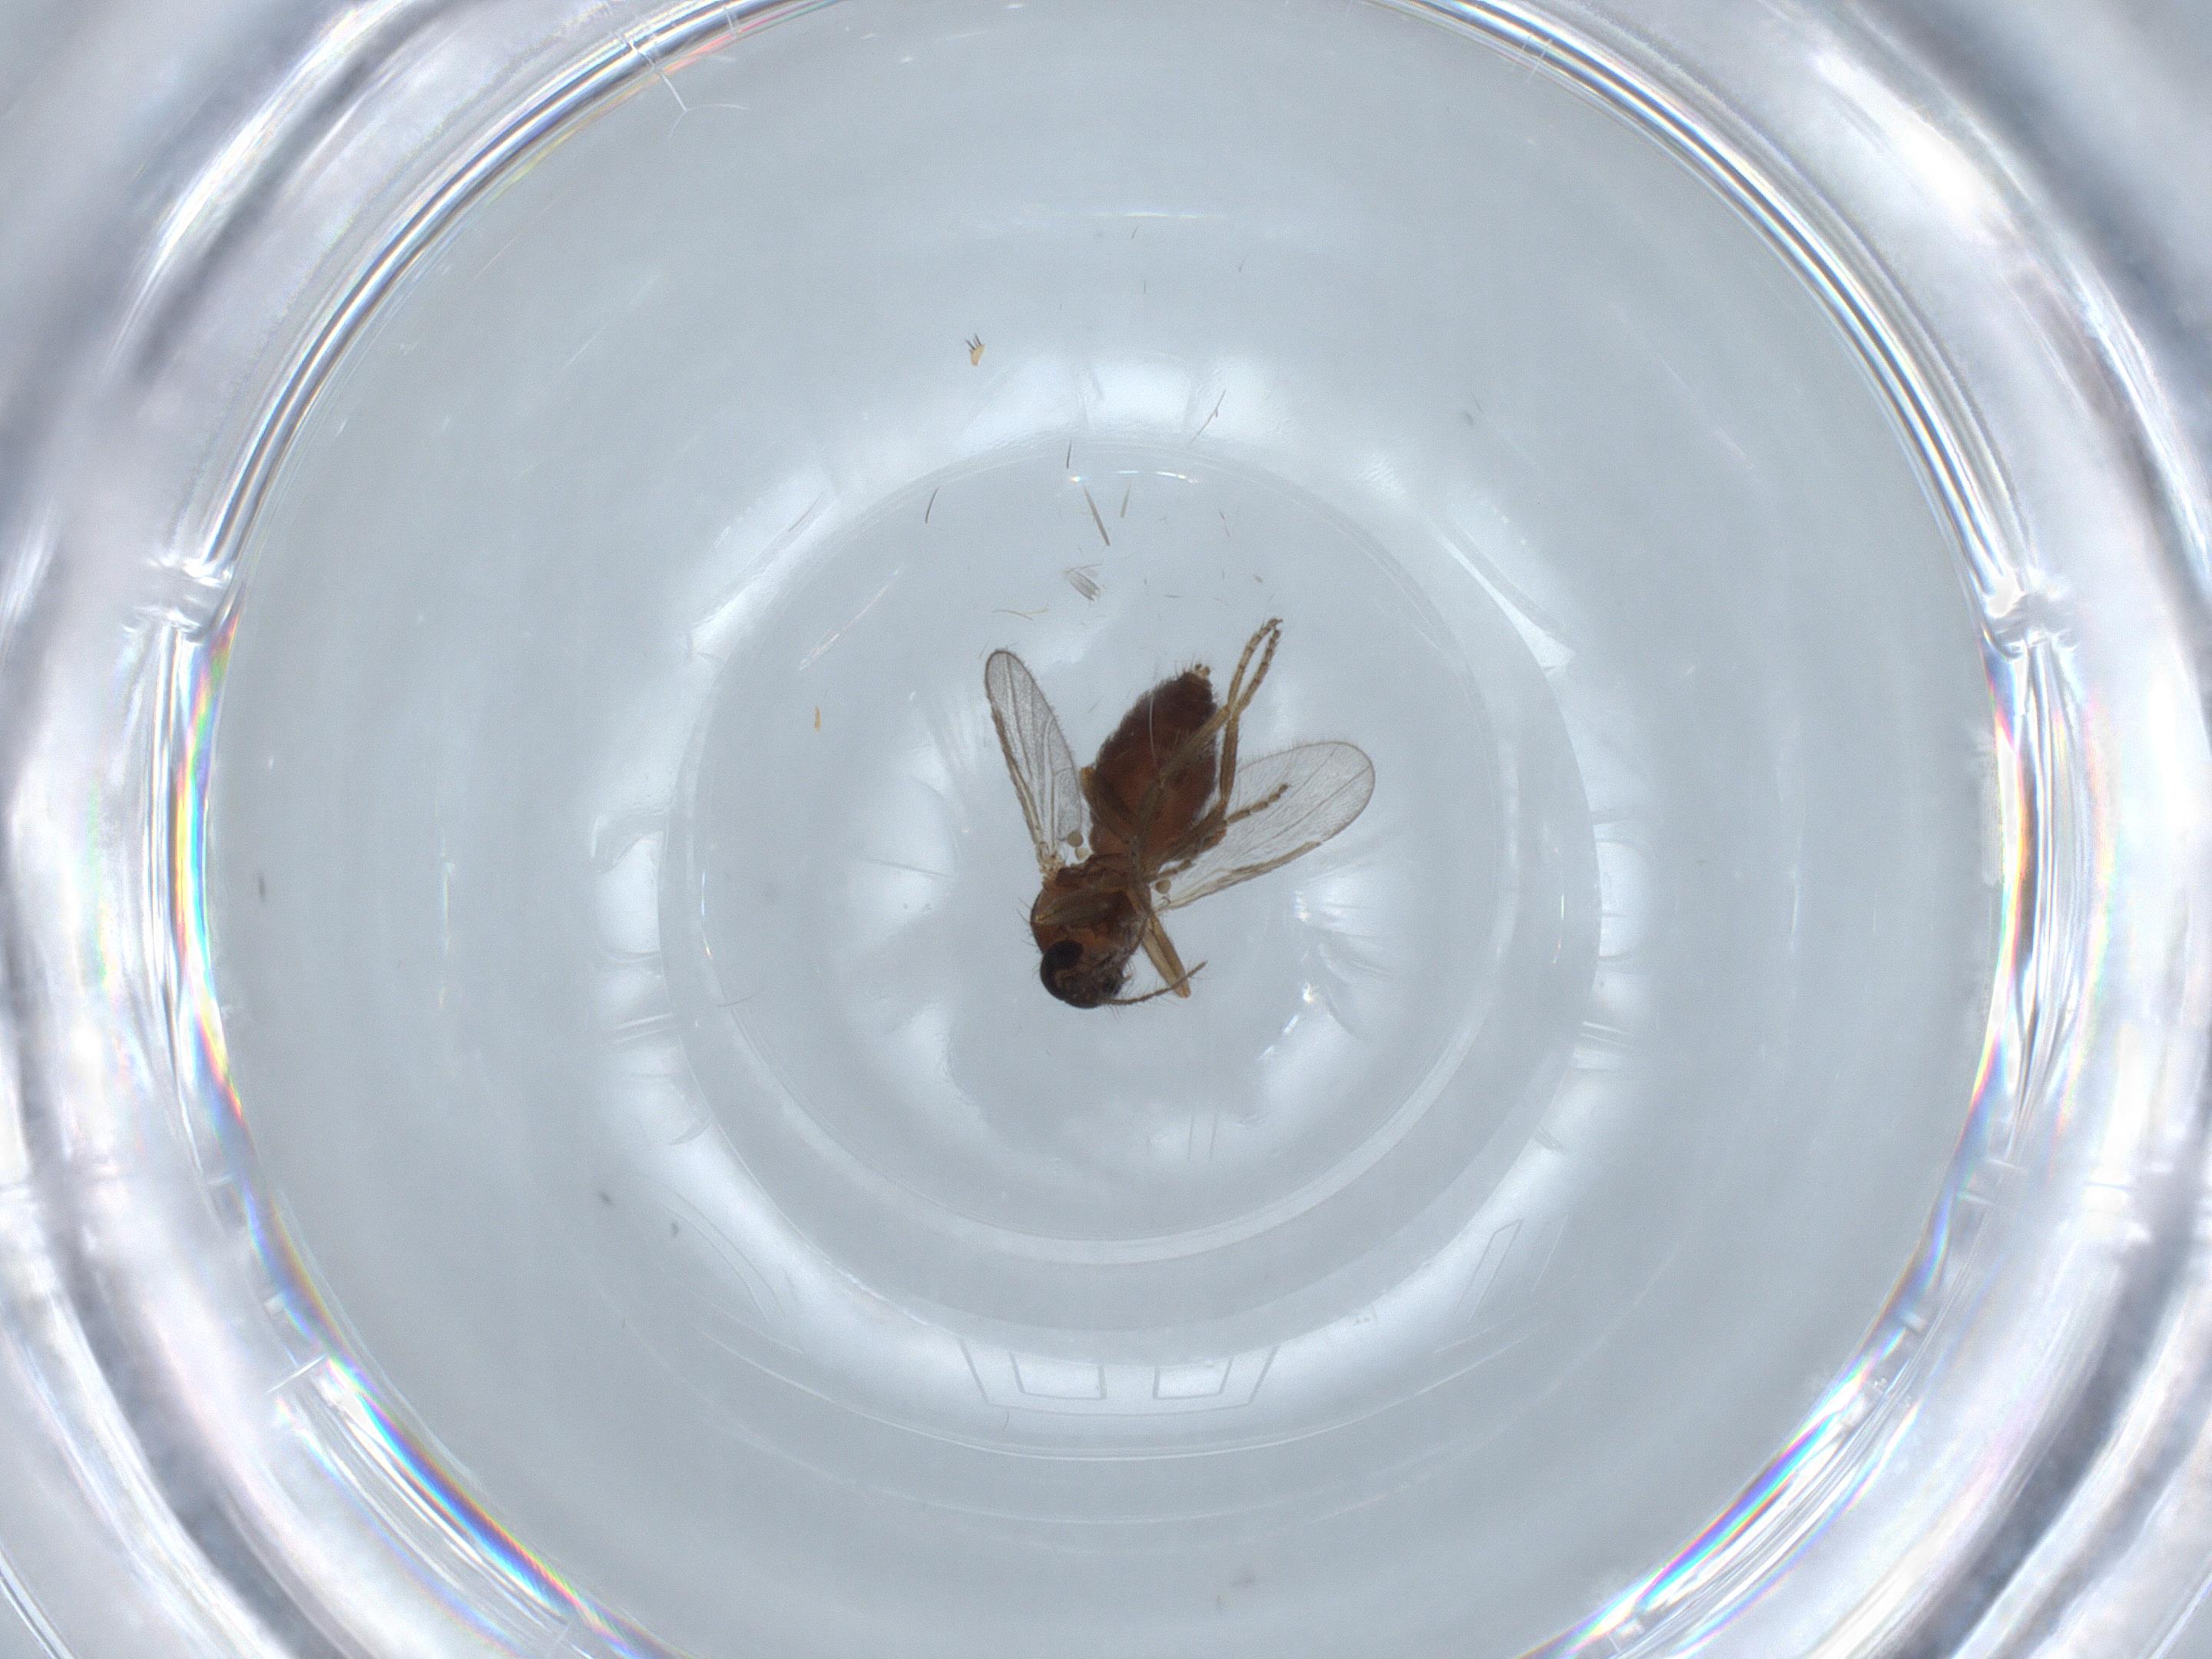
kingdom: Animalia
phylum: Arthropoda
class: Insecta
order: Diptera
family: Ceratopogonidae
